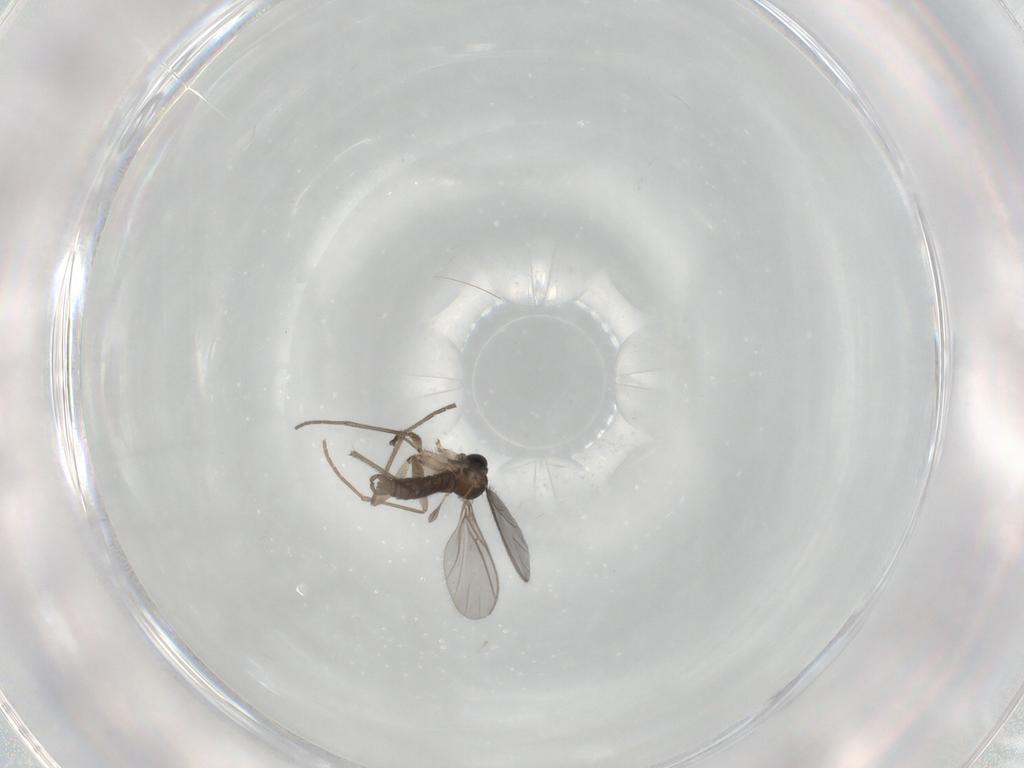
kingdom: Animalia
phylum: Arthropoda
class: Insecta
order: Diptera
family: Sciaridae
